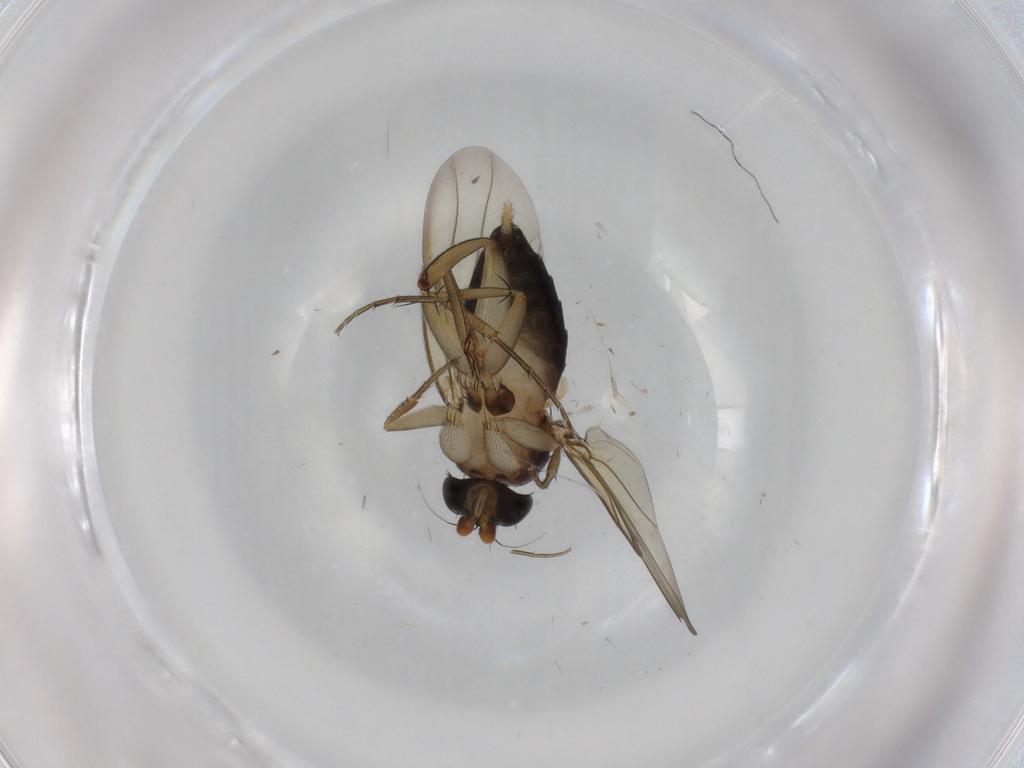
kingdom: Animalia
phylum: Arthropoda
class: Insecta
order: Diptera
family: Phoridae
